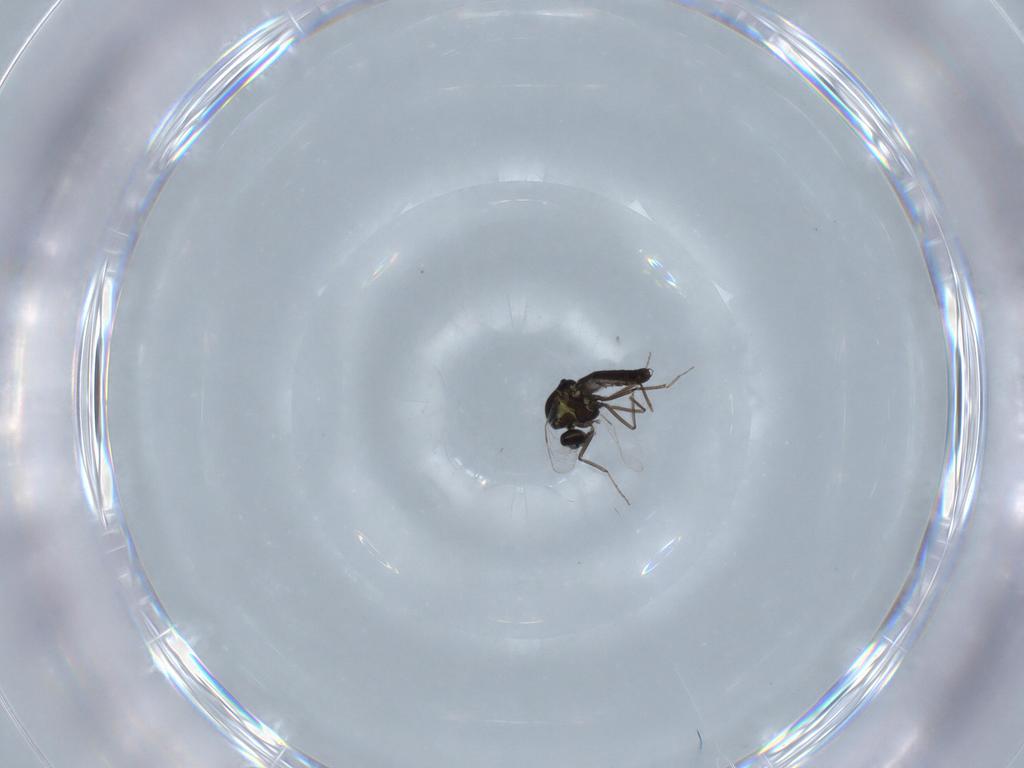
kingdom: Animalia
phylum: Arthropoda
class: Insecta
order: Diptera
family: Ceratopogonidae
